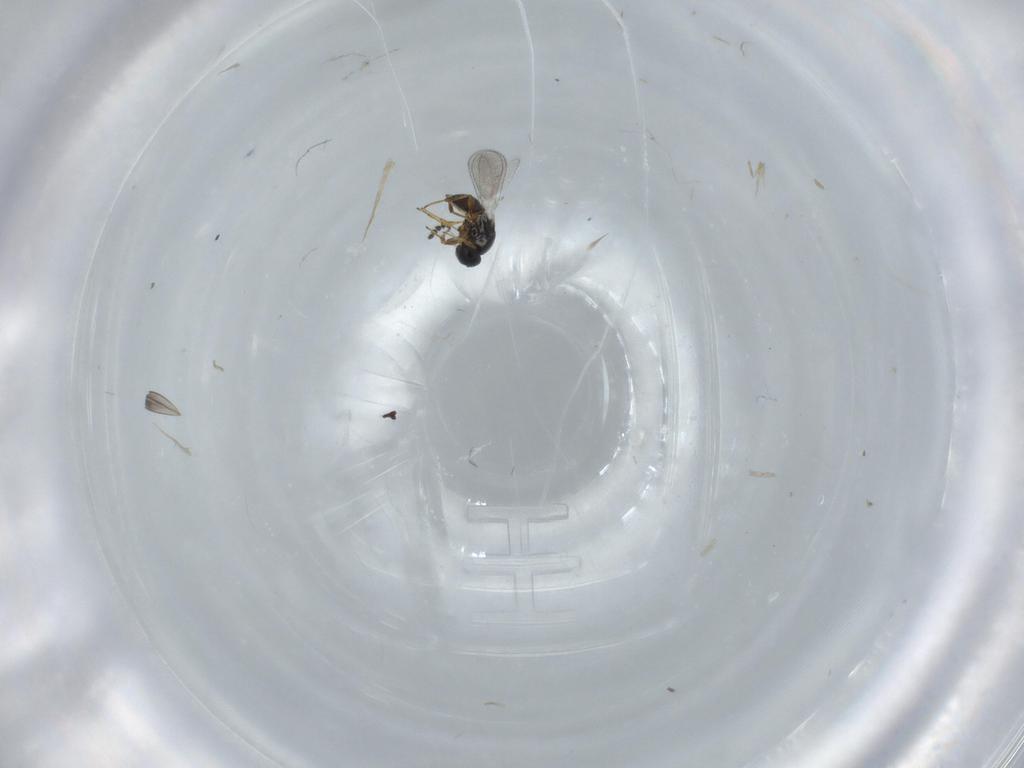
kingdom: Animalia
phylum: Arthropoda
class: Insecta
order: Hymenoptera
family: Platygastridae
